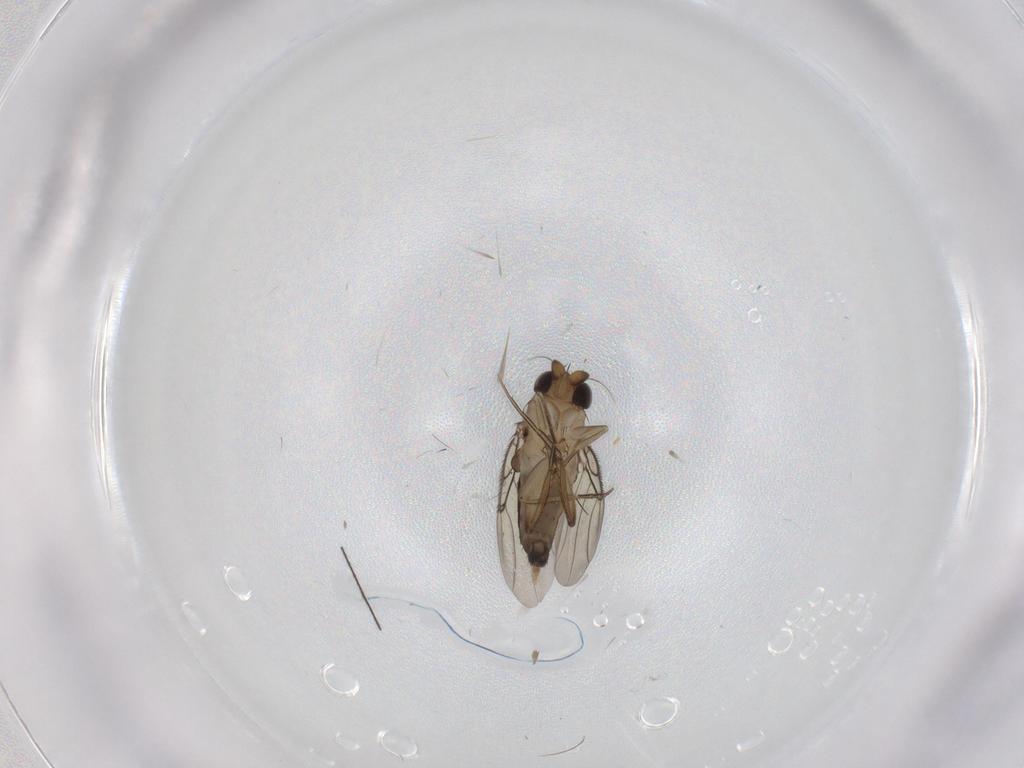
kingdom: Animalia
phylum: Arthropoda
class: Insecta
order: Diptera
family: Phoridae
